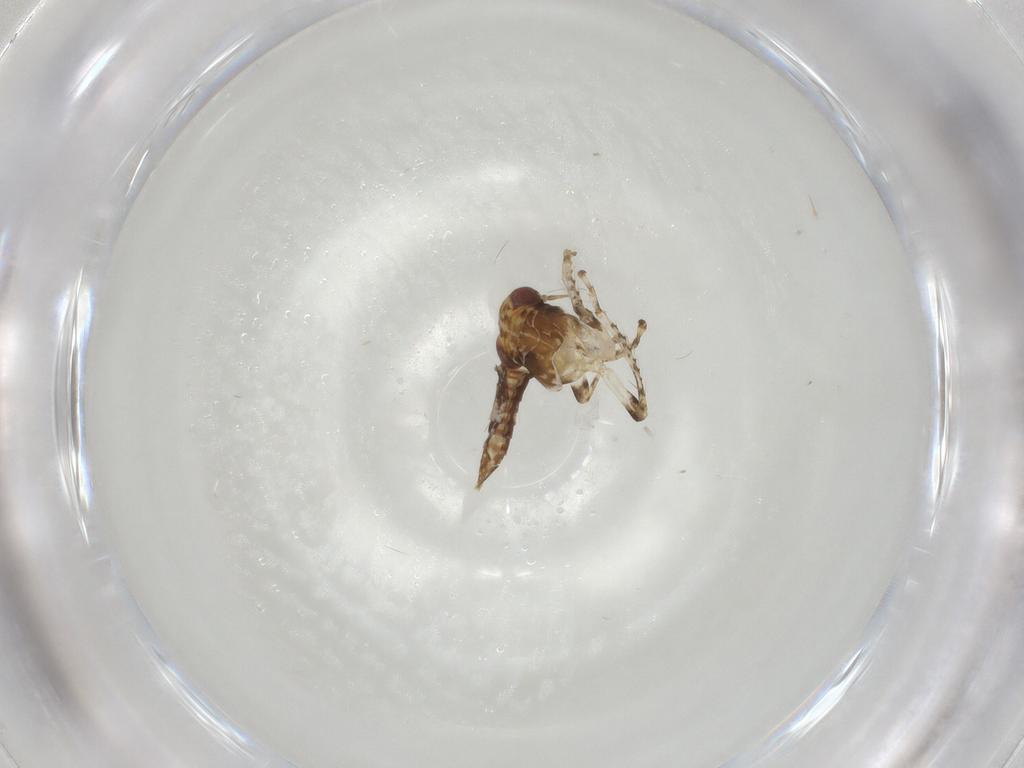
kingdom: Animalia
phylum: Arthropoda
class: Insecta
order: Hemiptera
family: Cicadellidae
